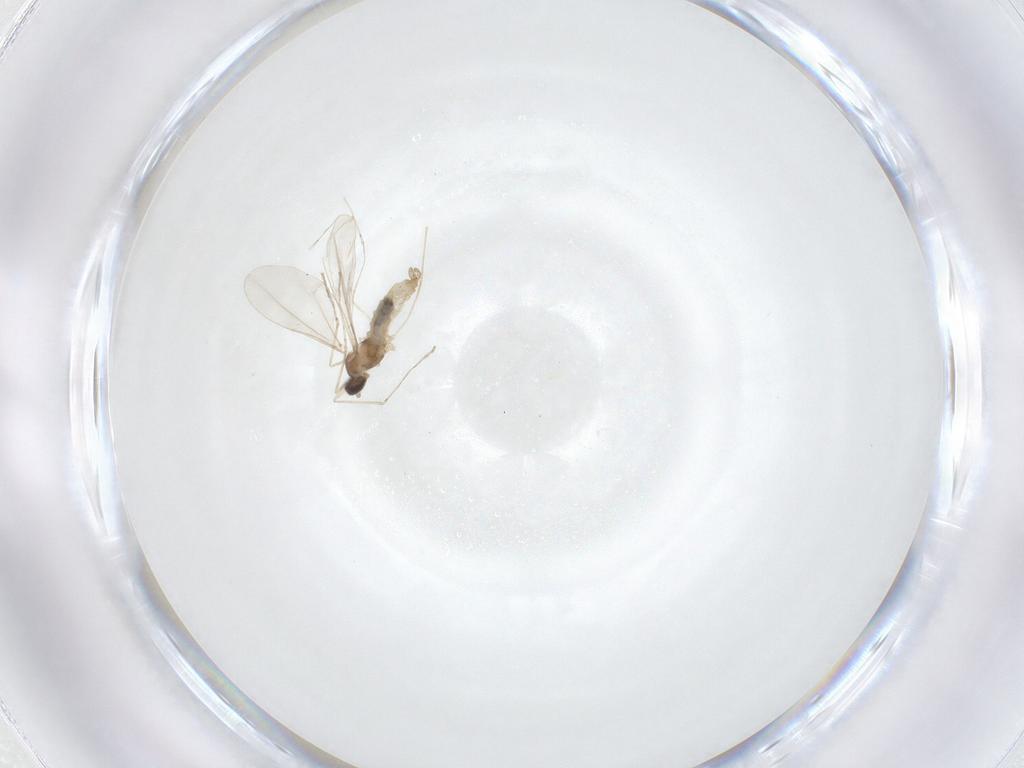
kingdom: Animalia
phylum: Arthropoda
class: Insecta
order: Diptera
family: Cecidomyiidae
